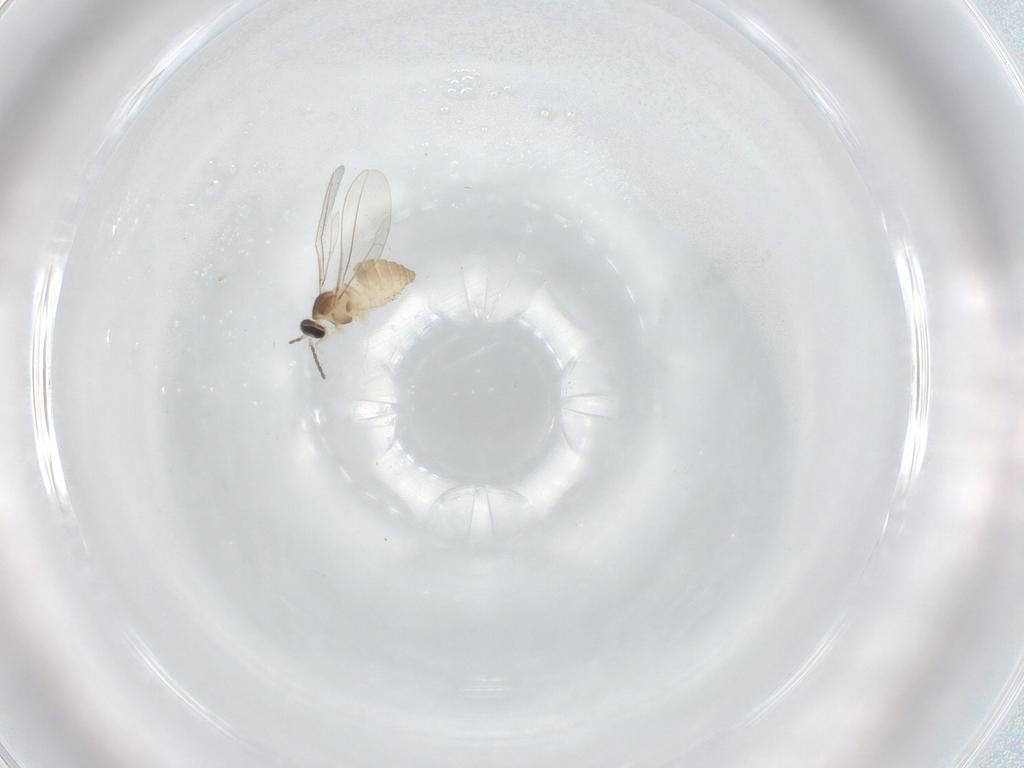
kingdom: Animalia
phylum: Arthropoda
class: Insecta
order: Diptera
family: Cecidomyiidae
